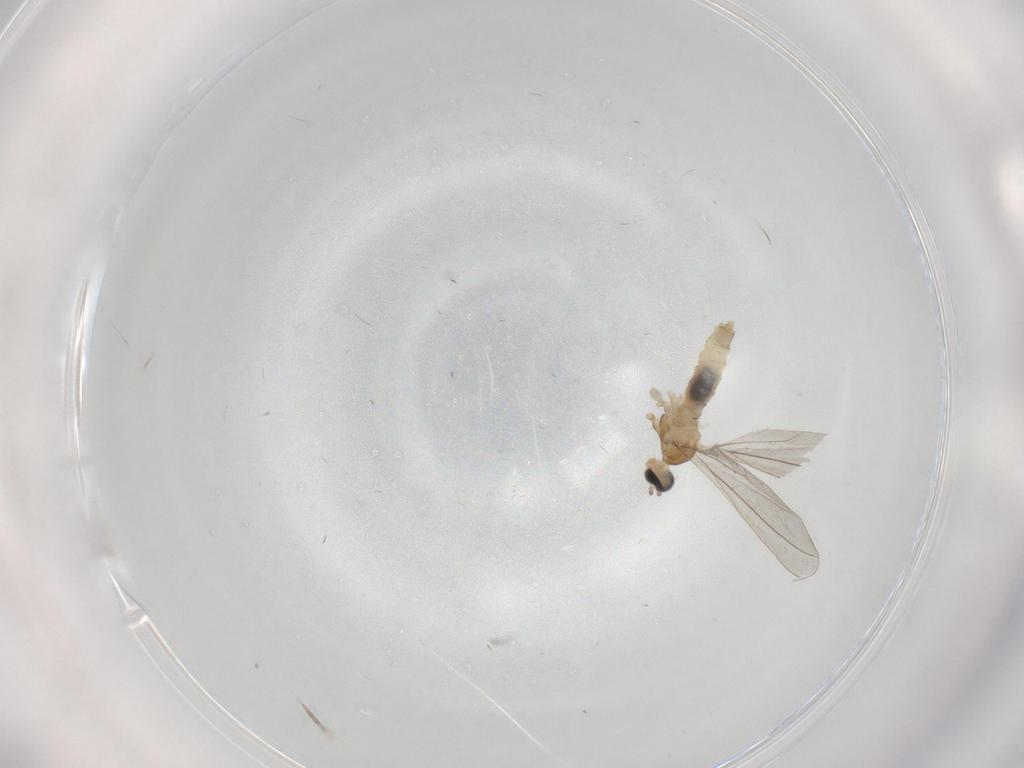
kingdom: Animalia
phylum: Arthropoda
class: Insecta
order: Diptera
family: Cecidomyiidae
